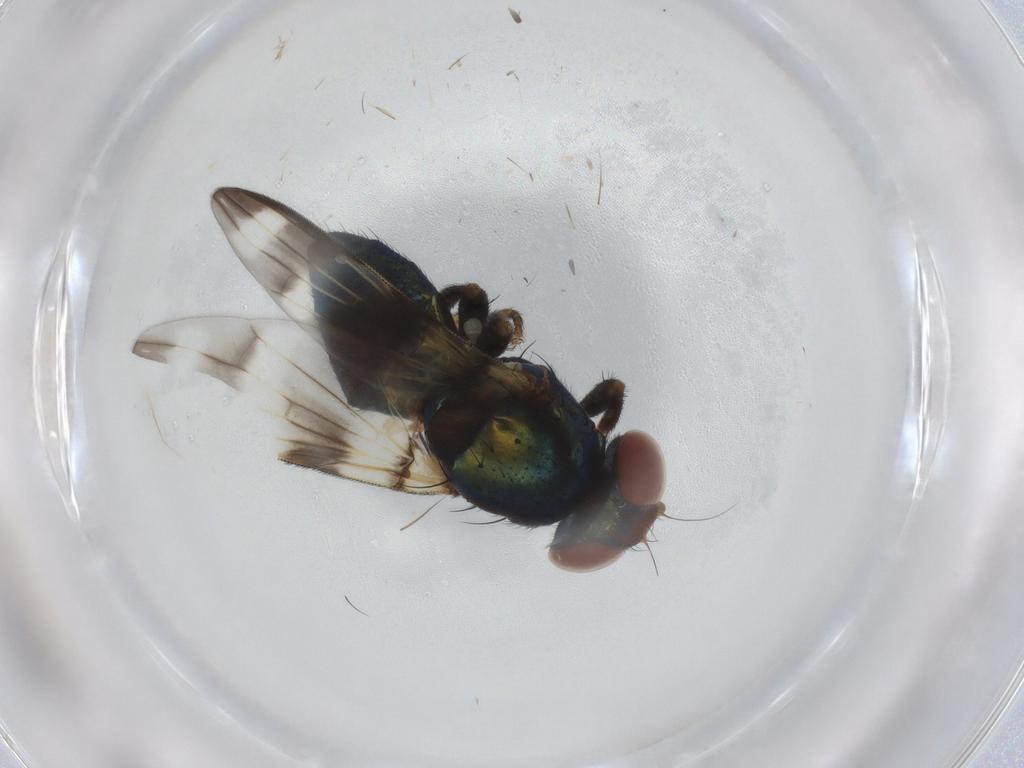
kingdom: Animalia
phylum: Arthropoda
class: Insecta
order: Diptera
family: Ulidiidae
